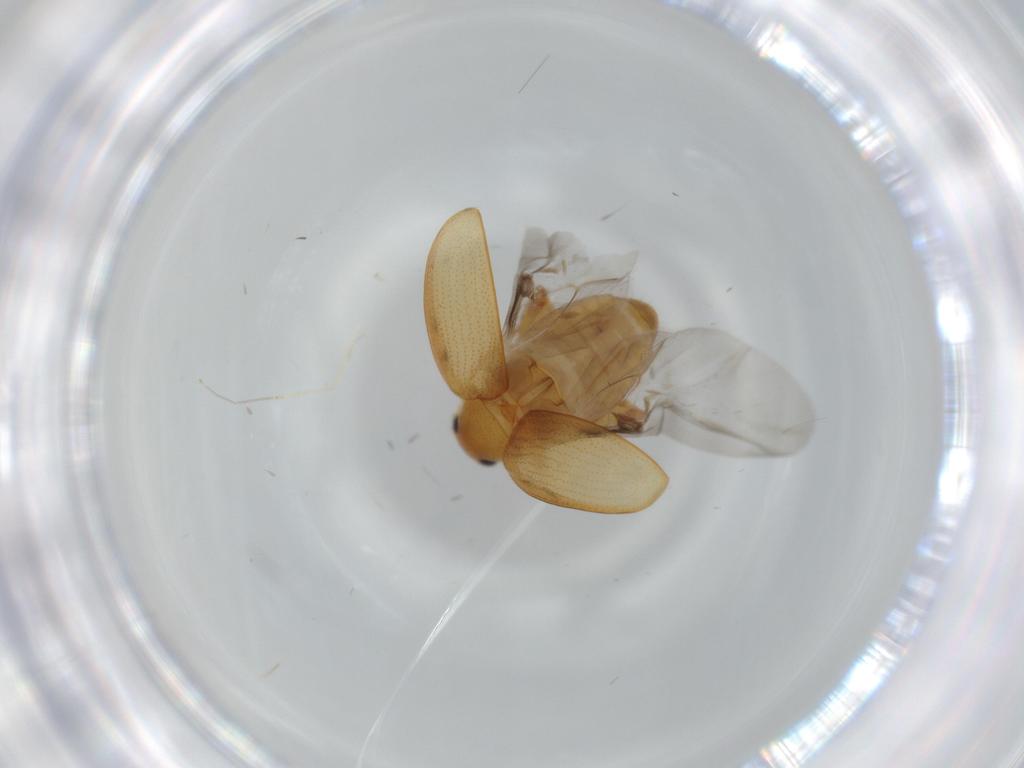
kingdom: Animalia
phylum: Arthropoda
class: Insecta
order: Coleoptera
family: Chrysomelidae
